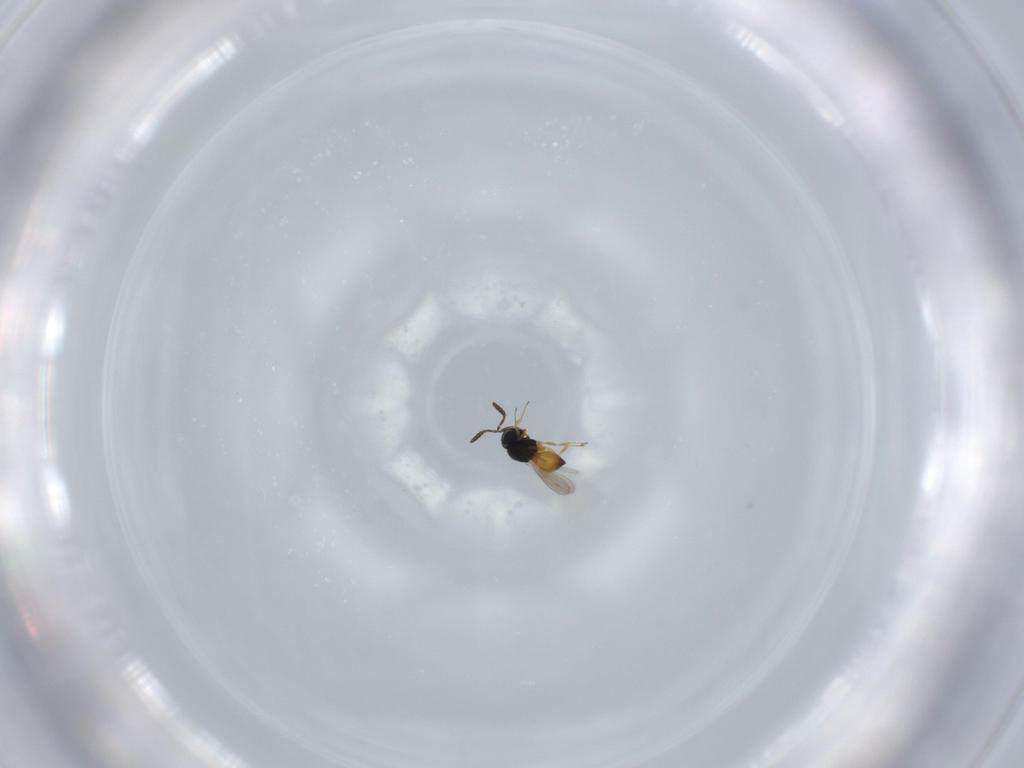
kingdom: Animalia
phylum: Arthropoda
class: Insecta
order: Hymenoptera
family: Scelionidae
